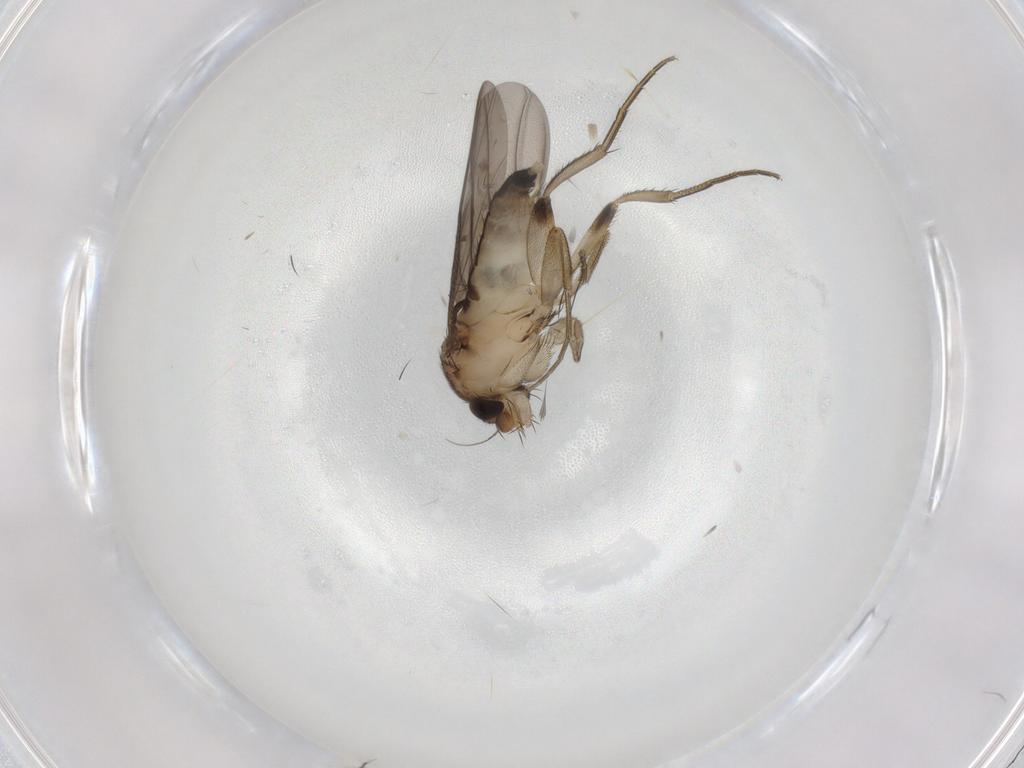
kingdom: Animalia
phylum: Arthropoda
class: Insecta
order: Diptera
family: Phoridae
